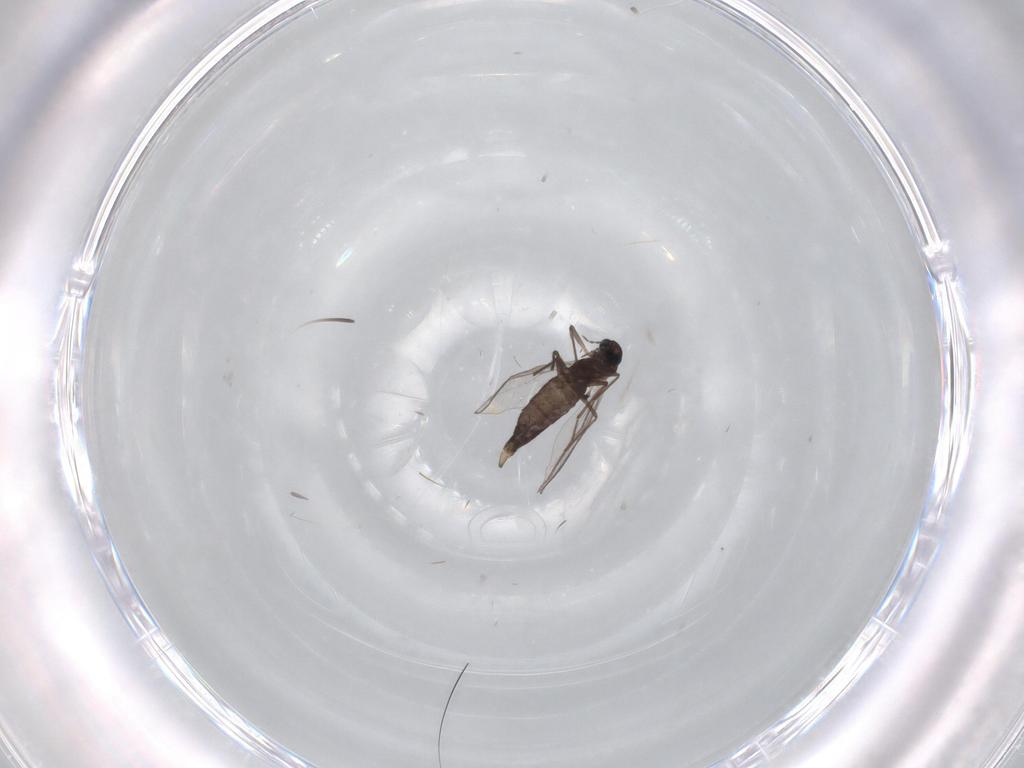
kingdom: Animalia
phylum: Arthropoda
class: Insecta
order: Diptera
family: Chironomidae
